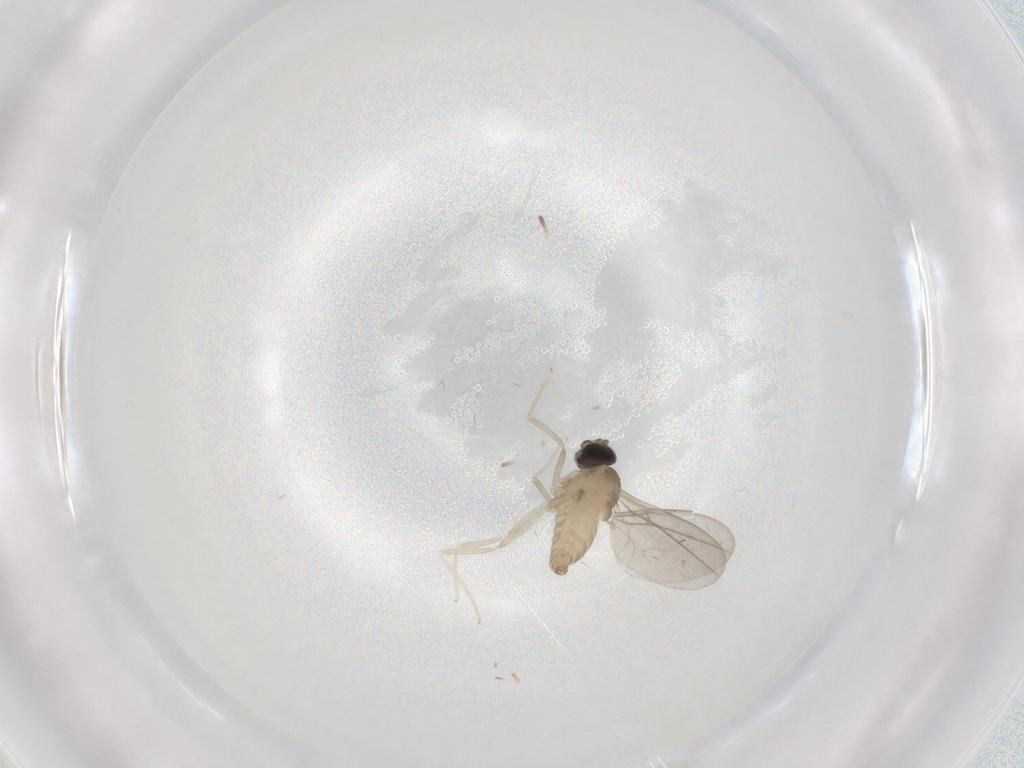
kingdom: Animalia
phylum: Arthropoda
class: Insecta
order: Diptera
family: Cecidomyiidae
